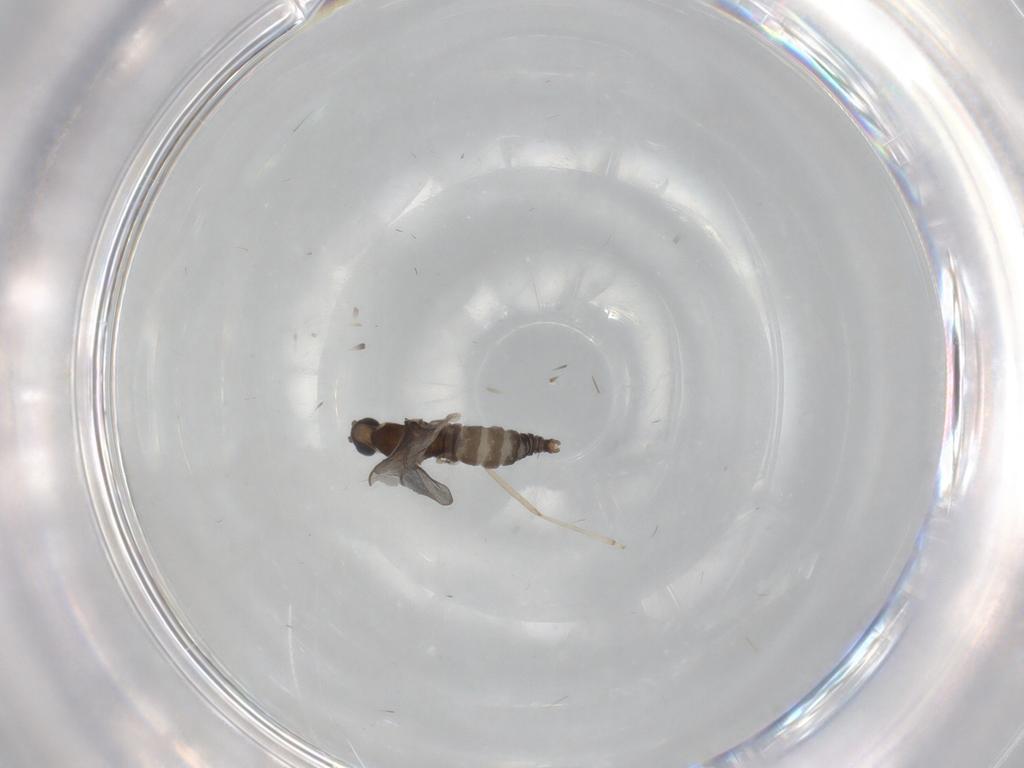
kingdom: Animalia
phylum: Arthropoda
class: Insecta
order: Diptera
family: Cecidomyiidae
